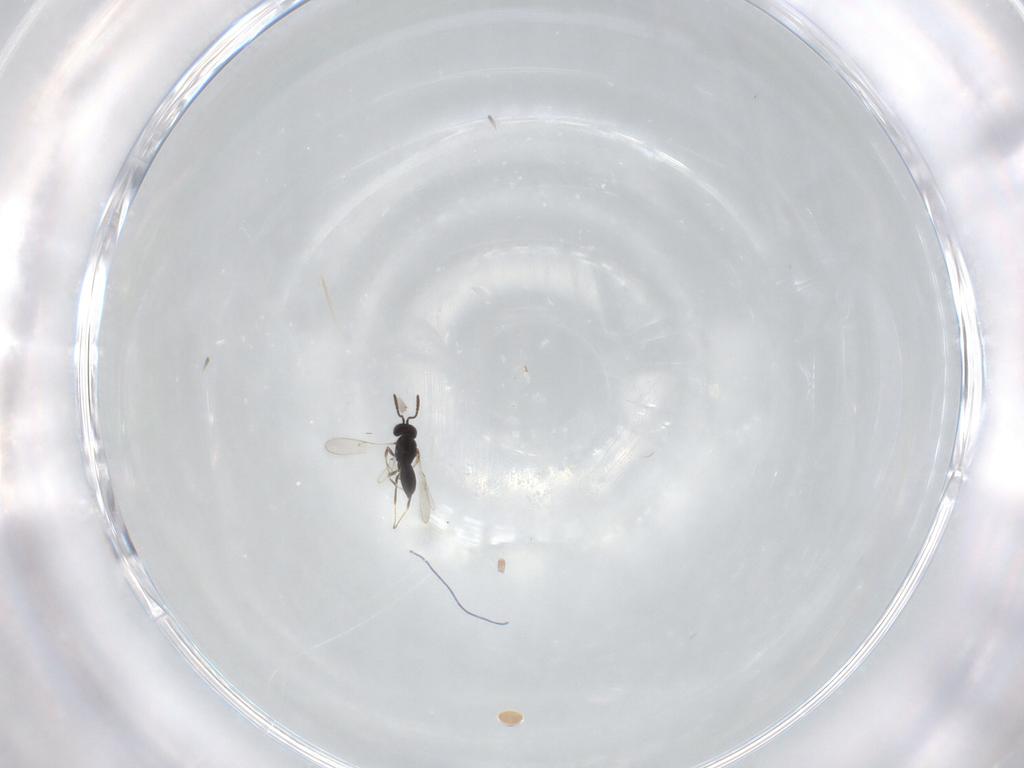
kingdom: Animalia
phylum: Arthropoda
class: Insecta
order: Hymenoptera
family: Scelionidae
